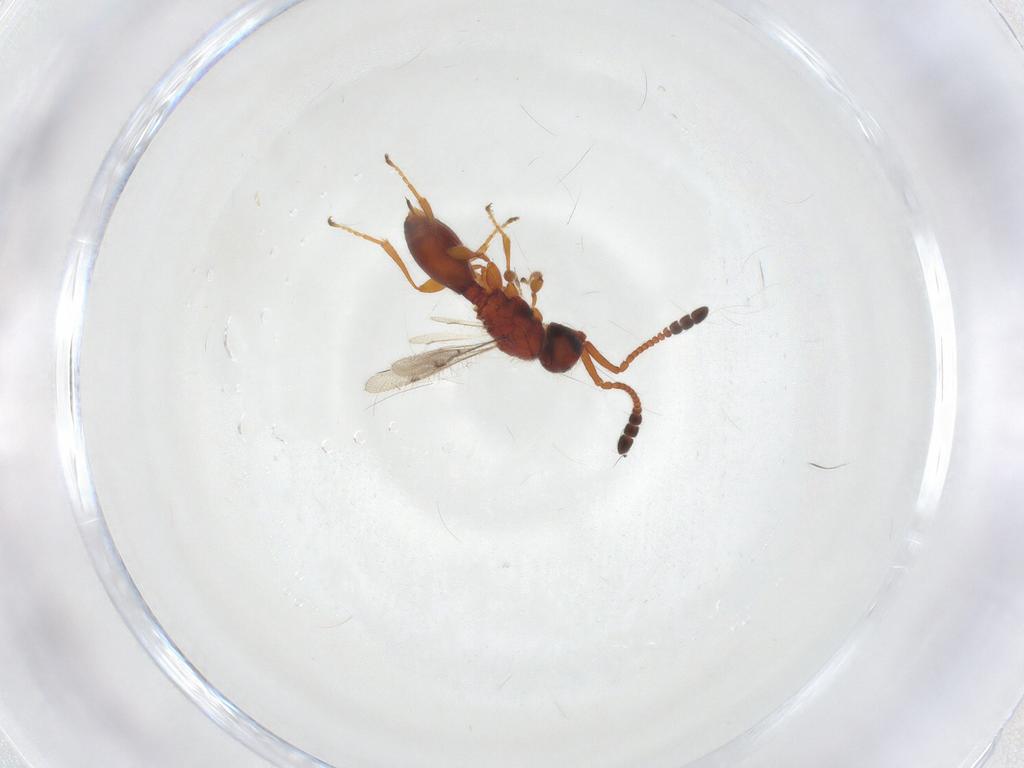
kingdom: Animalia
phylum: Arthropoda
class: Insecta
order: Hymenoptera
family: Diapriidae
